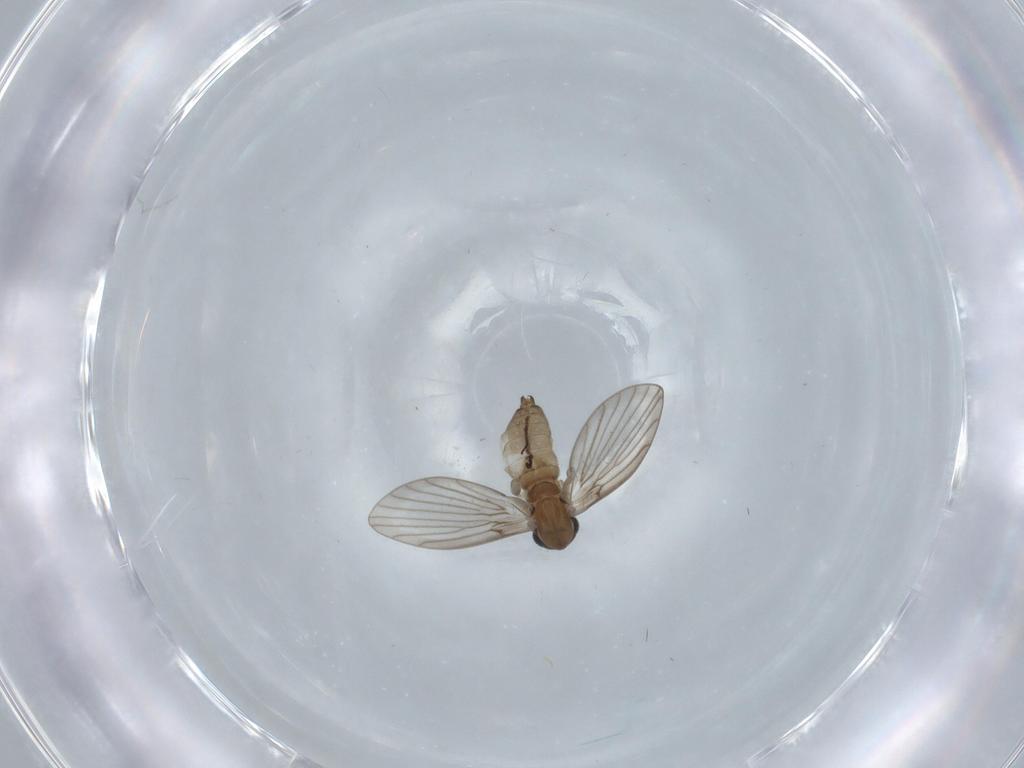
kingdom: Animalia
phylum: Arthropoda
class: Insecta
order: Diptera
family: Psychodidae
